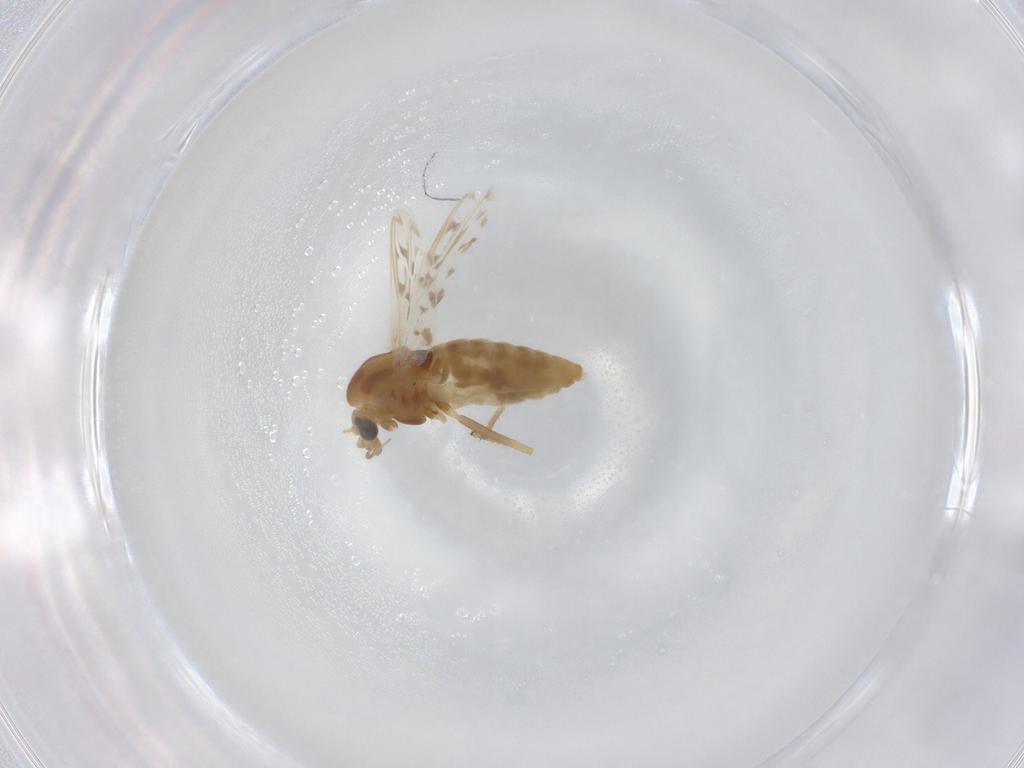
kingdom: Animalia
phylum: Arthropoda
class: Insecta
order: Diptera
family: Chironomidae
